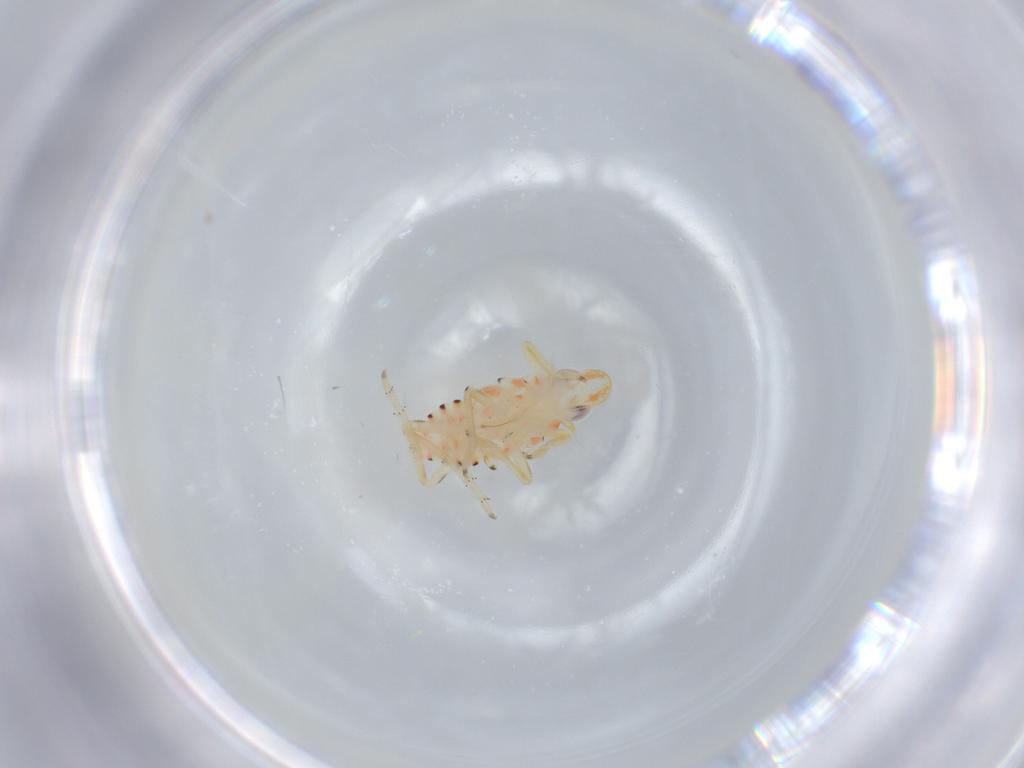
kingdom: Animalia
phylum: Arthropoda
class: Insecta
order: Hemiptera
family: Tropiduchidae
